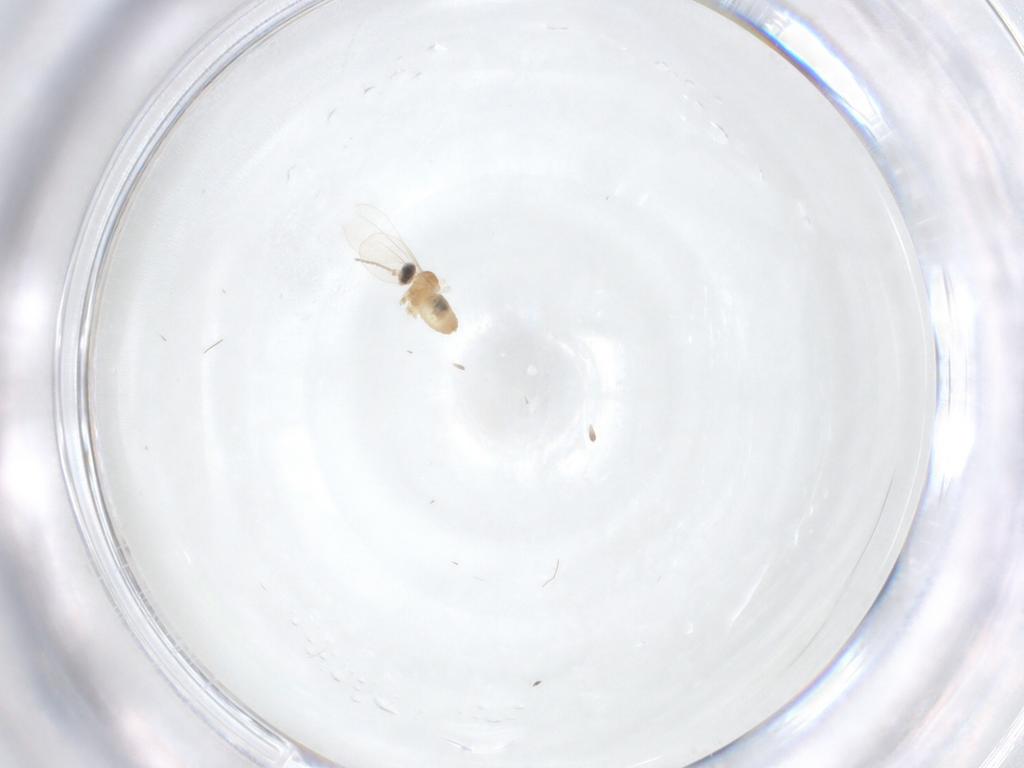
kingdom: Animalia
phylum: Arthropoda
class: Insecta
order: Diptera
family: Cecidomyiidae
